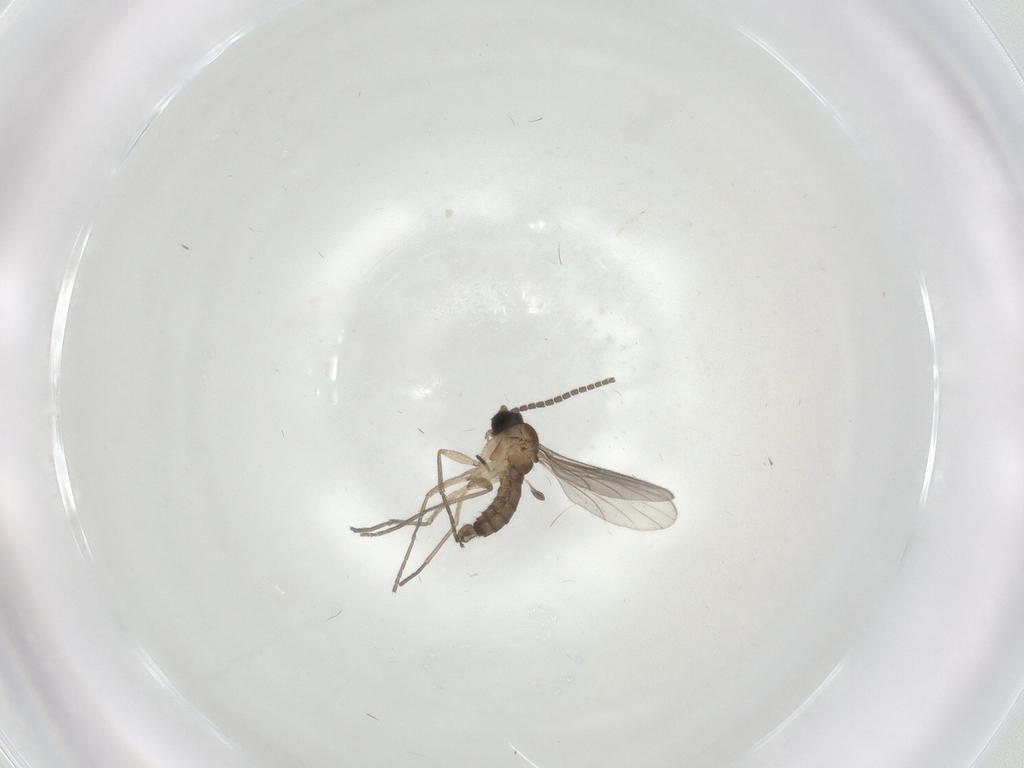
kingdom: Animalia
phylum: Arthropoda
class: Insecta
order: Diptera
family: Sciaridae
